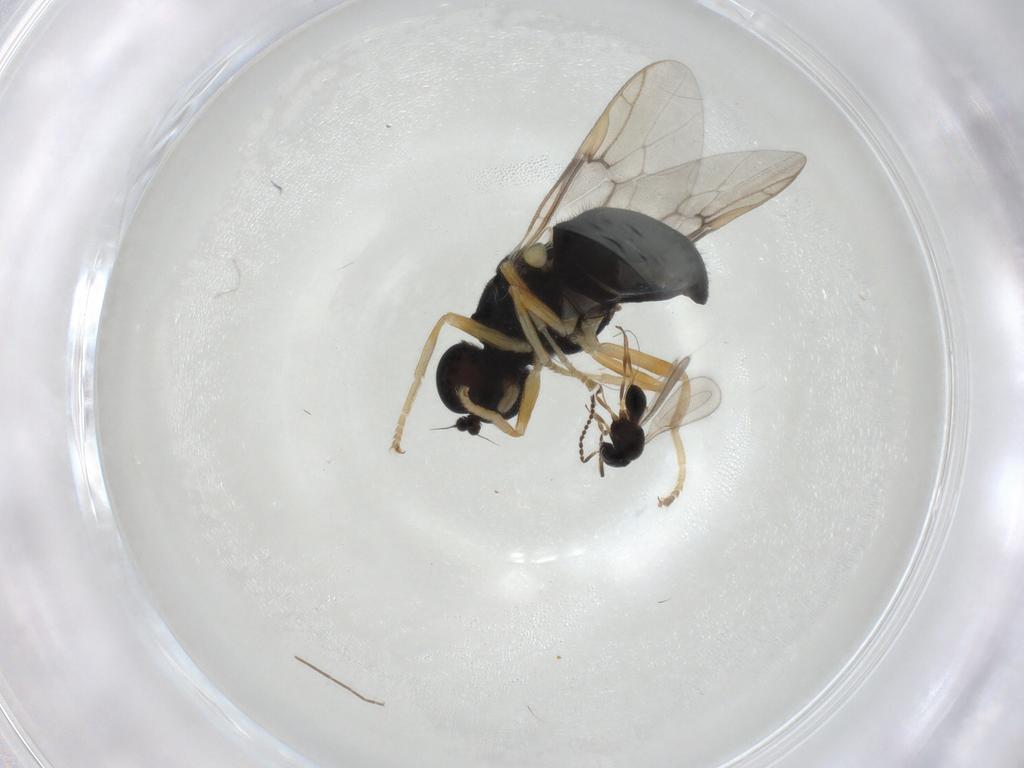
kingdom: Animalia
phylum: Arthropoda
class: Insecta
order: Diptera
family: Stratiomyidae
